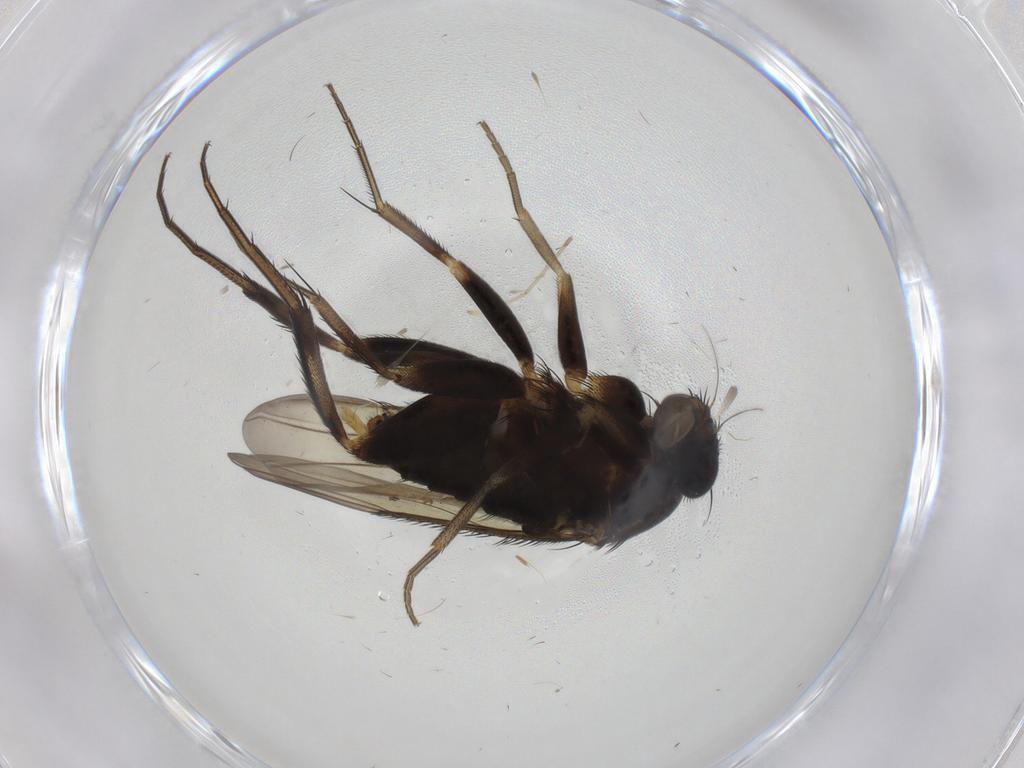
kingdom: Animalia
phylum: Arthropoda
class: Insecta
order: Diptera
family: Phoridae
